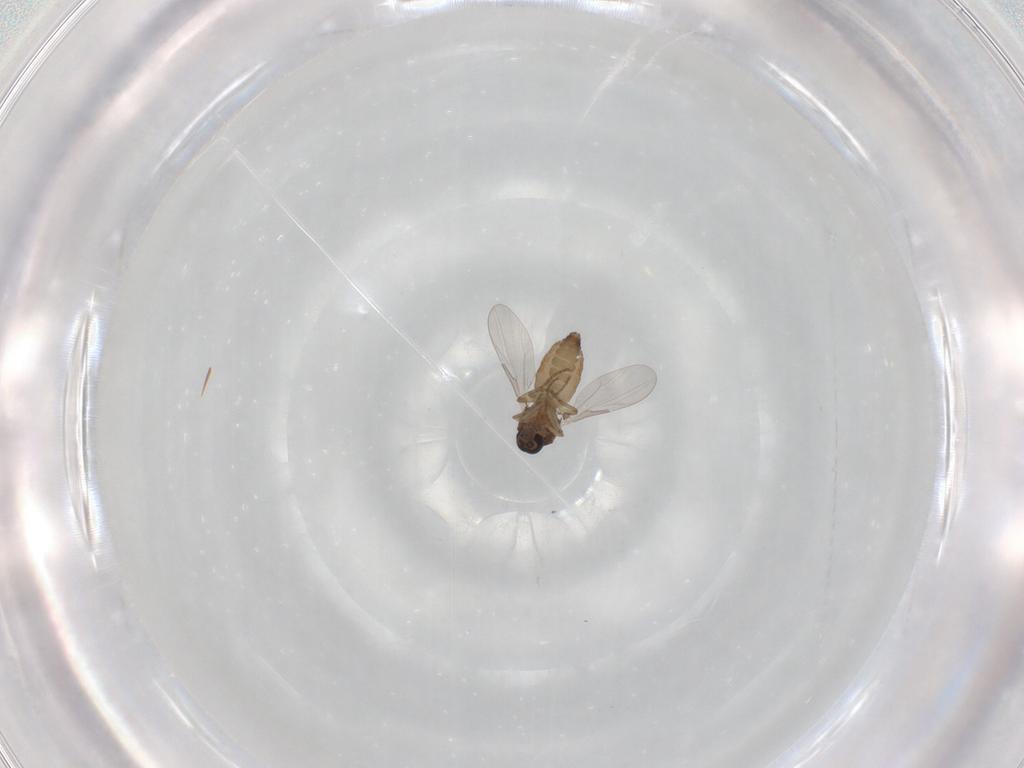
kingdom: Animalia
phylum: Arthropoda
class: Insecta
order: Diptera
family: Ceratopogonidae
